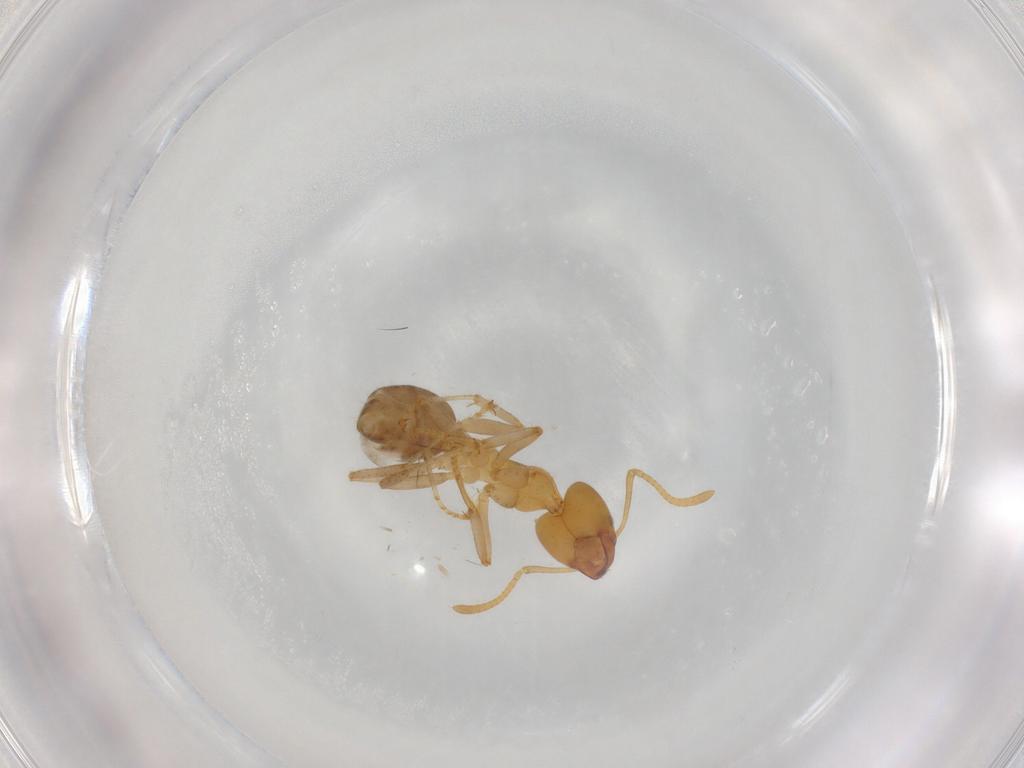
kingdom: Animalia
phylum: Arthropoda
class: Insecta
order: Hymenoptera
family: Formicidae
